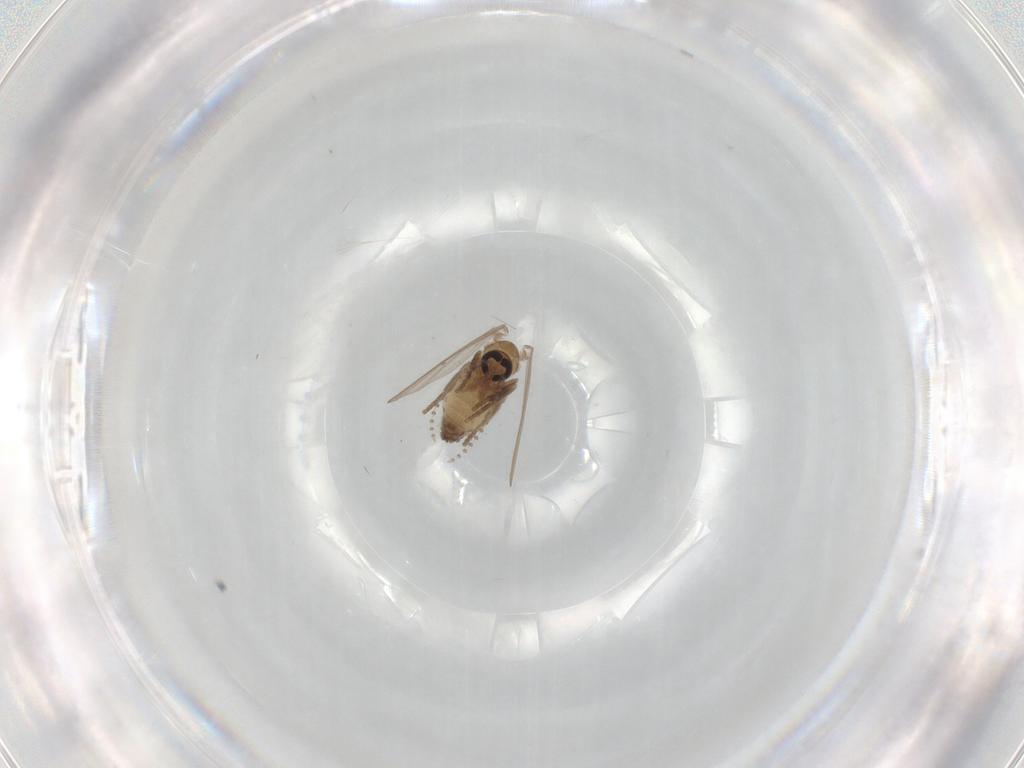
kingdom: Animalia
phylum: Arthropoda
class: Insecta
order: Diptera
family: Psychodidae
